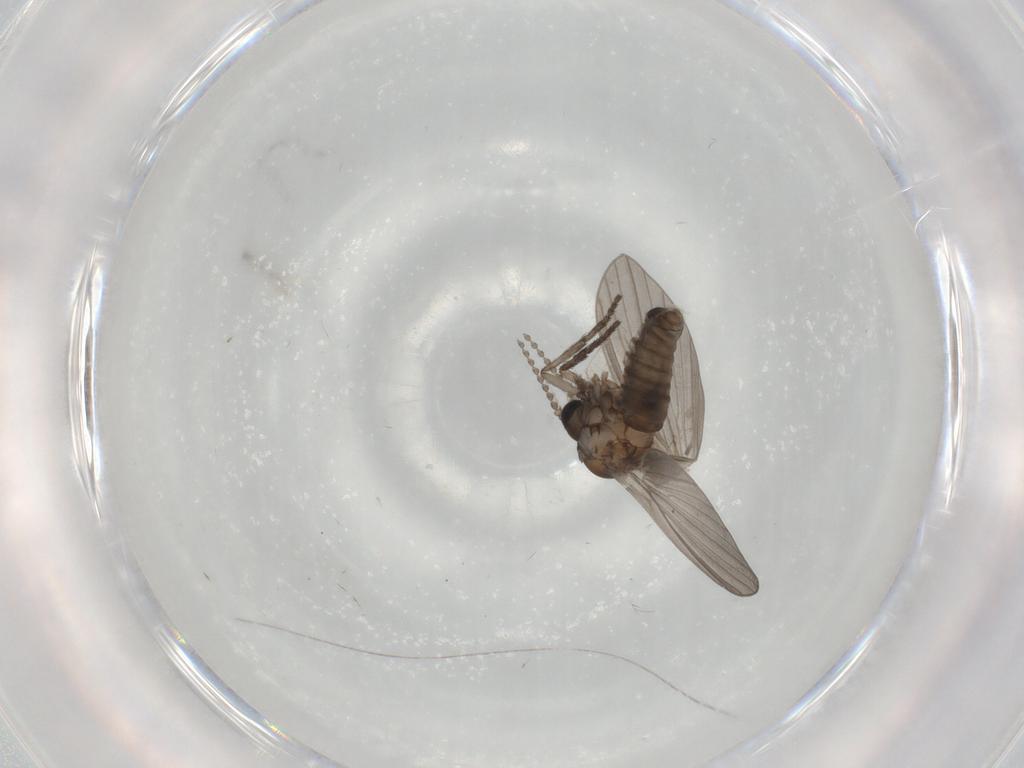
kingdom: Animalia
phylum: Arthropoda
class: Insecta
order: Diptera
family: Psychodidae
